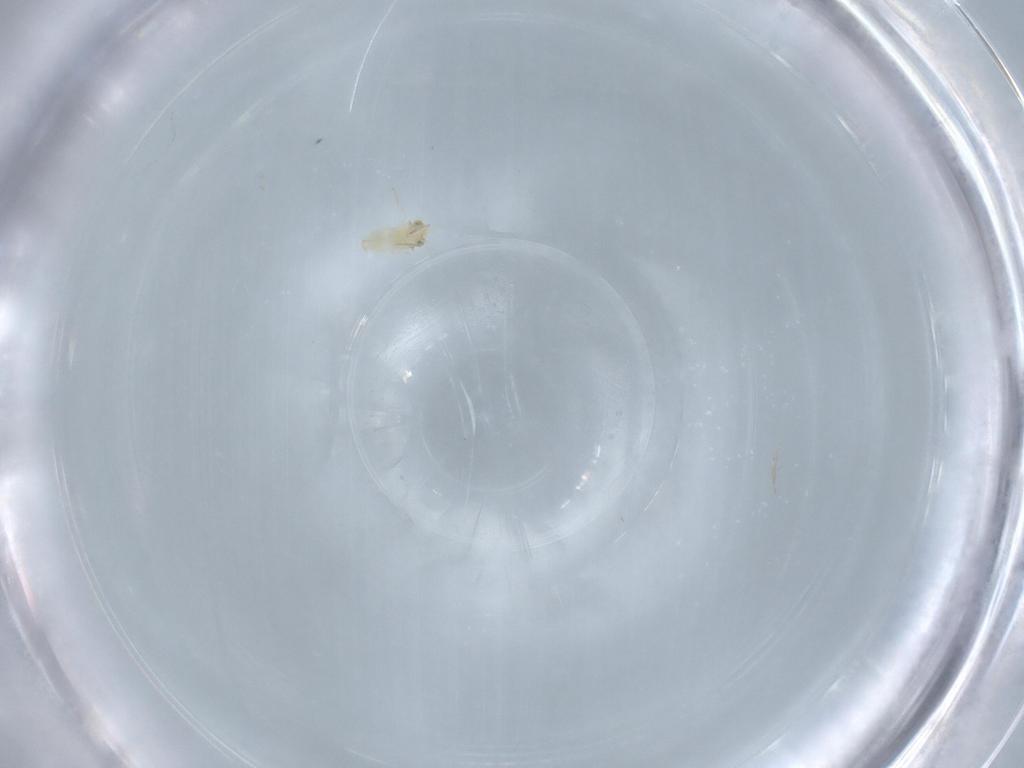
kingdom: Animalia
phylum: Arthropoda
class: Insecta
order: Hymenoptera
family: Aphelinidae
